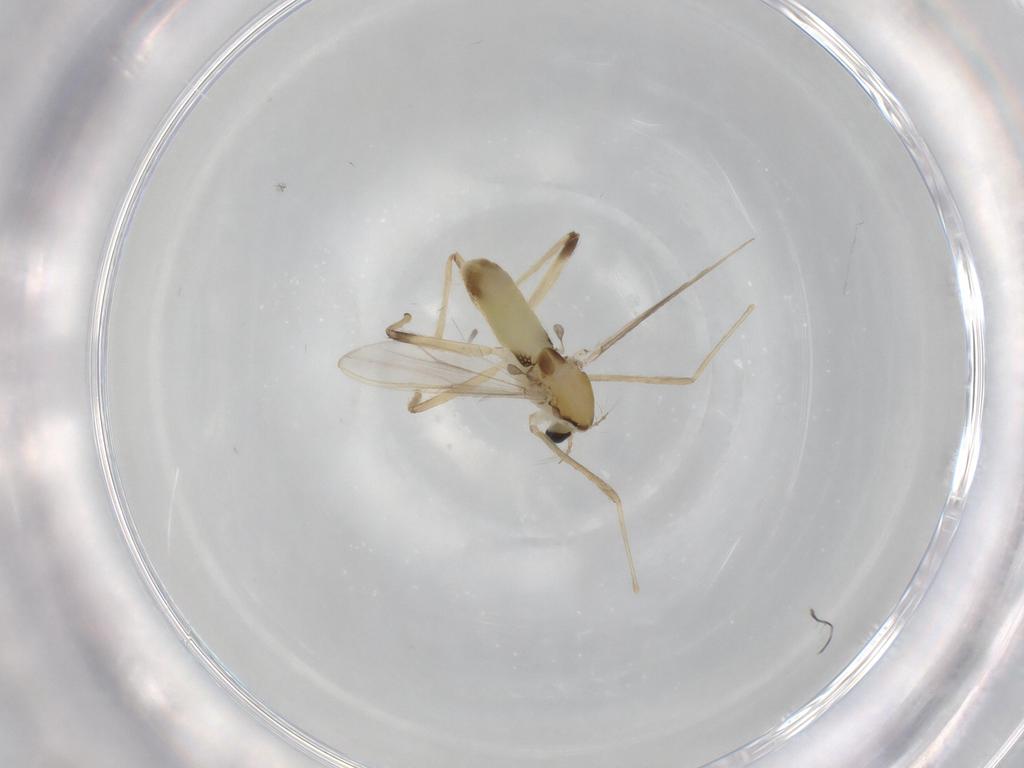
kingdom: Animalia
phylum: Arthropoda
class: Insecta
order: Diptera
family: Chironomidae
